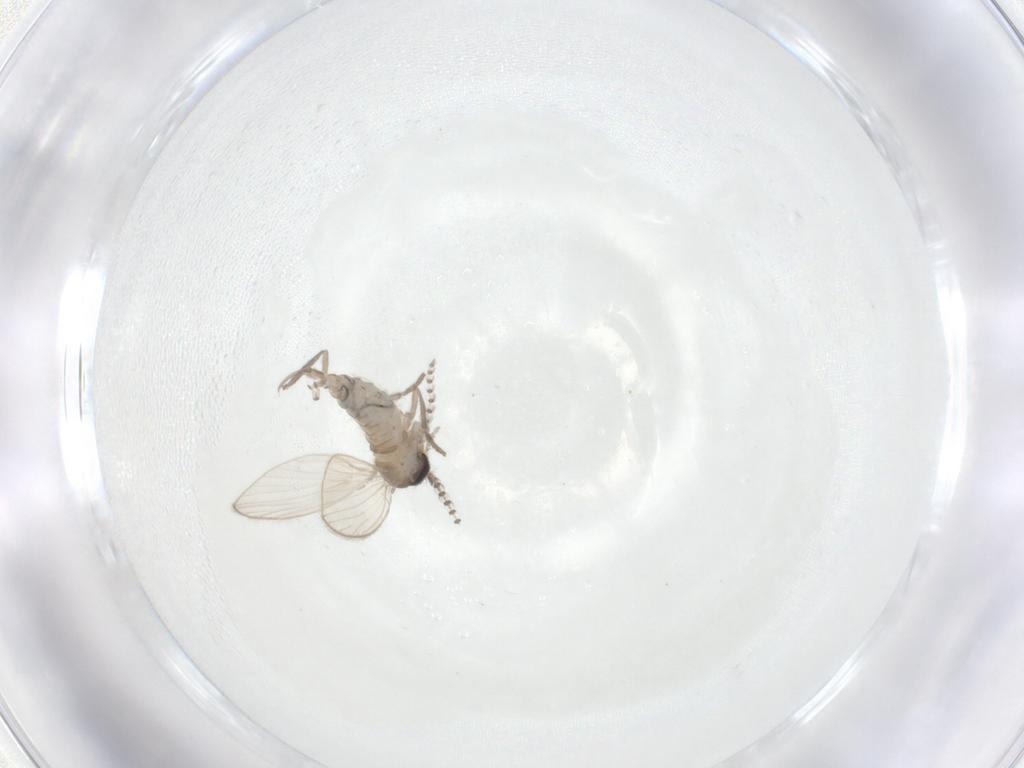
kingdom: Animalia
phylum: Arthropoda
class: Insecta
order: Diptera
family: Psychodidae
